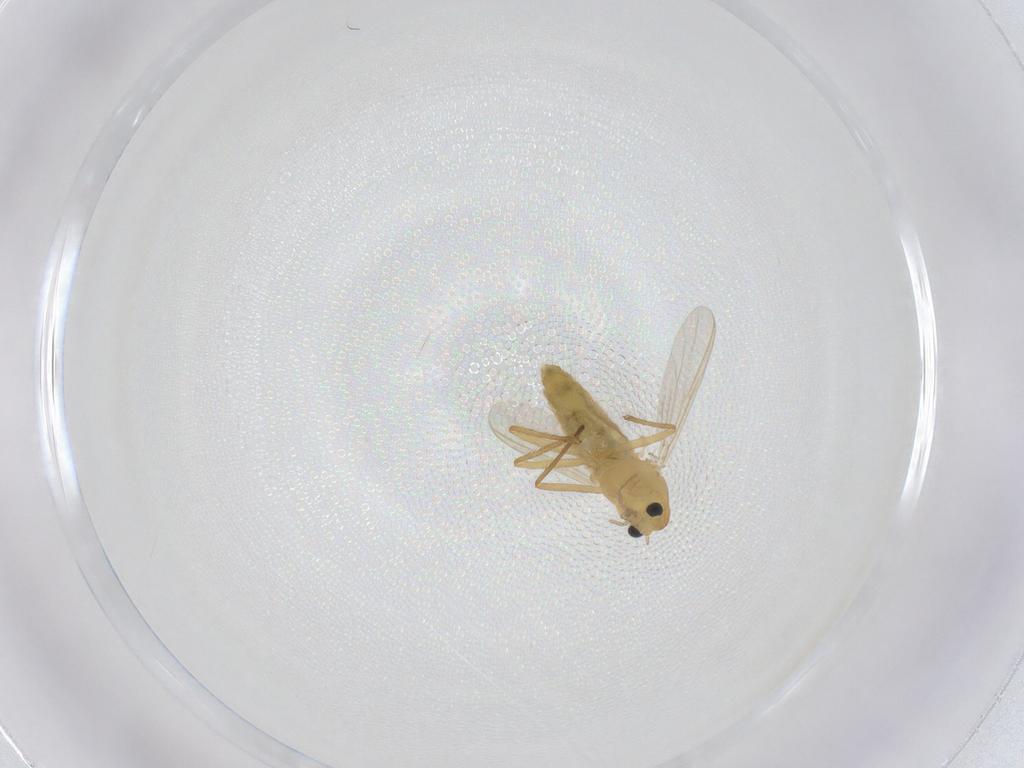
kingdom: Animalia
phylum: Arthropoda
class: Insecta
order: Diptera
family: Chironomidae
